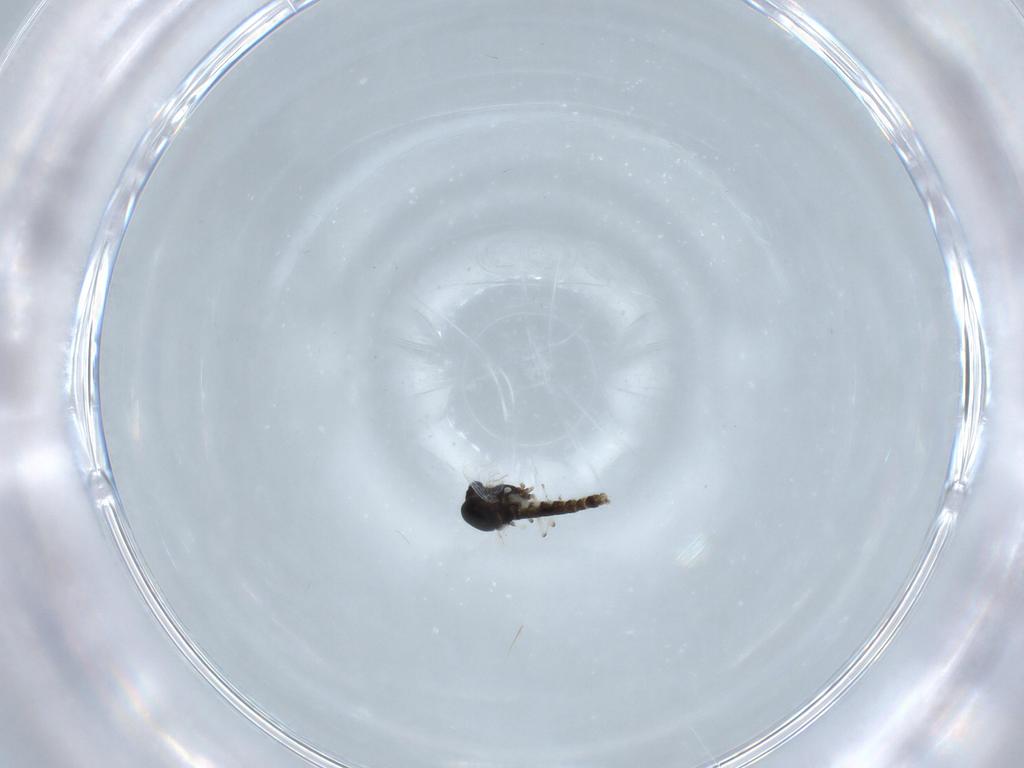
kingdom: Animalia
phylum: Arthropoda
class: Insecta
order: Diptera
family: Chironomidae
